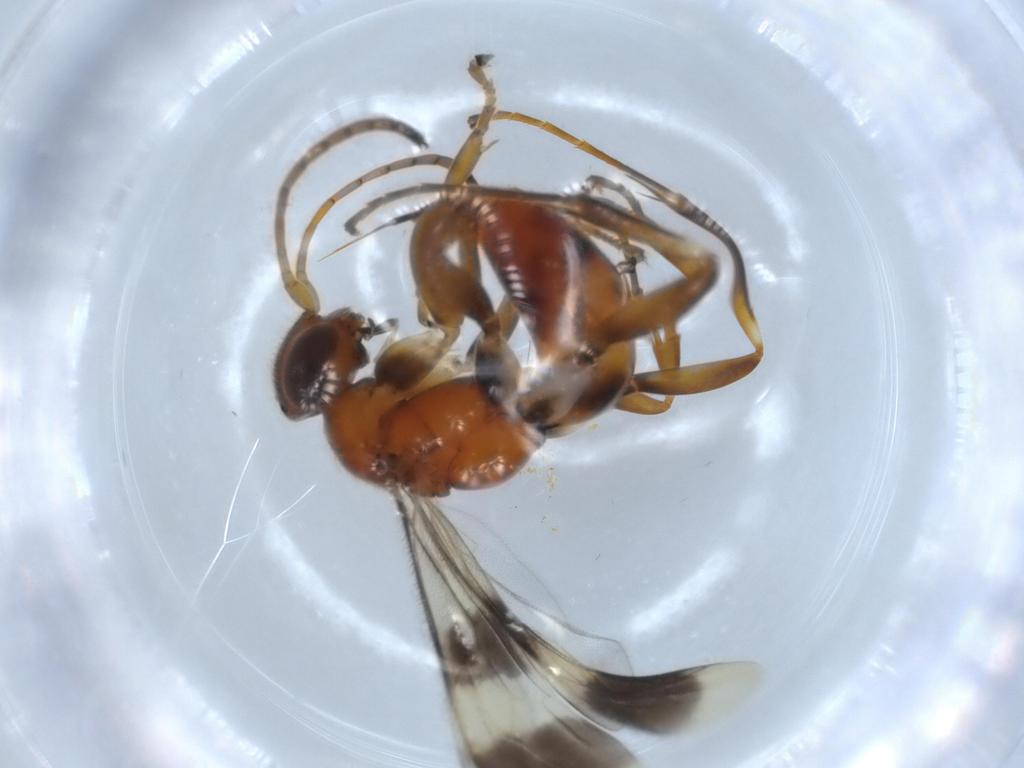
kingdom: Animalia
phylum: Arthropoda
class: Insecta
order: Hymenoptera
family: Pompilidae
